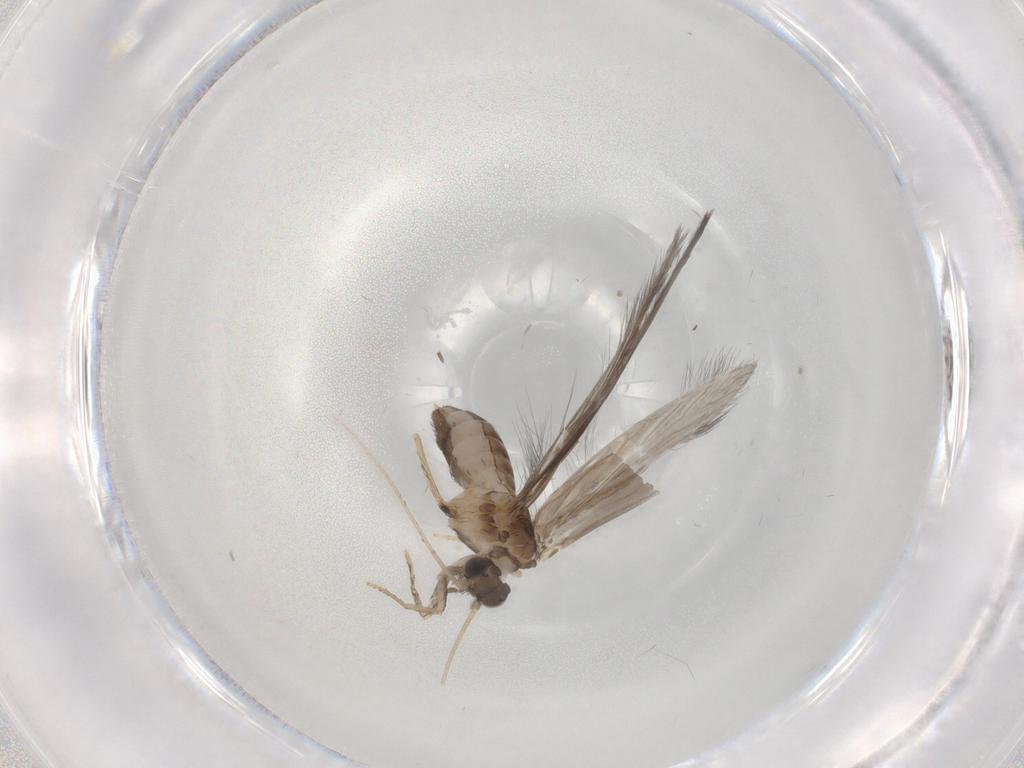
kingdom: Animalia
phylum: Arthropoda
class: Insecta
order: Trichoptera
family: Hydroptilidae
